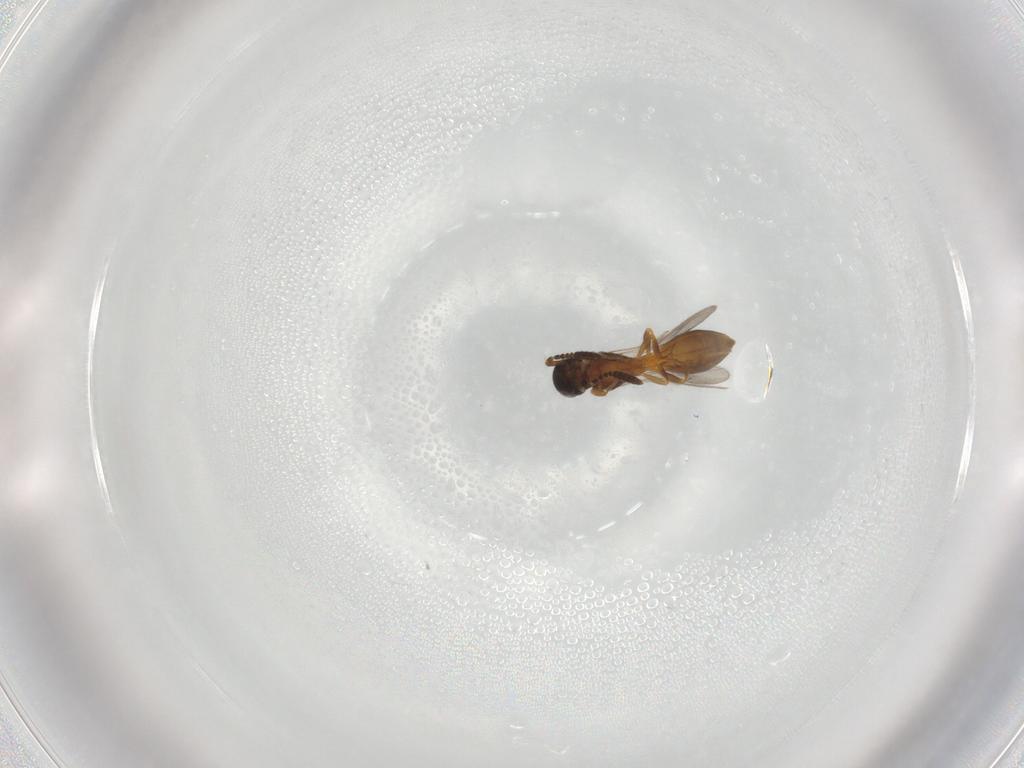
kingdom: Animalia
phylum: Arthropoda
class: Insecta
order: Hymenoptera
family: Scelionidae
